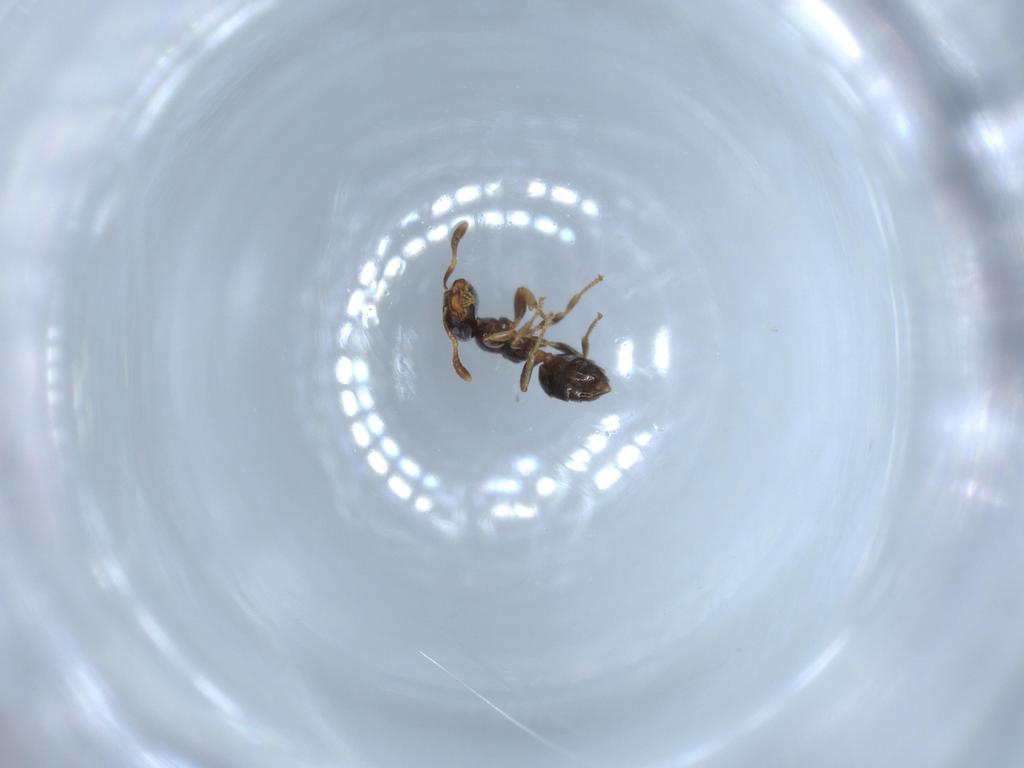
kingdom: Animalia
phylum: Arthropoda
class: Insecta
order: Hymenoptera
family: Formicidae
